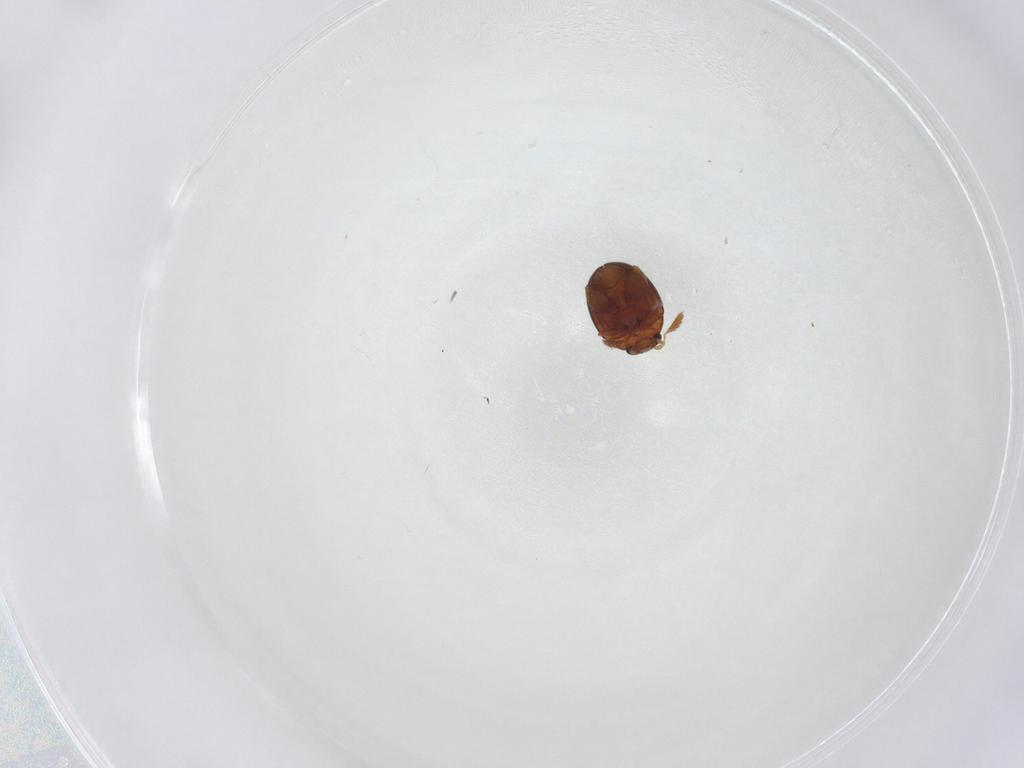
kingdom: Animalia
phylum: Arthropoda
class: Insecta
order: Coleoptera
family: Chrysomelidae
